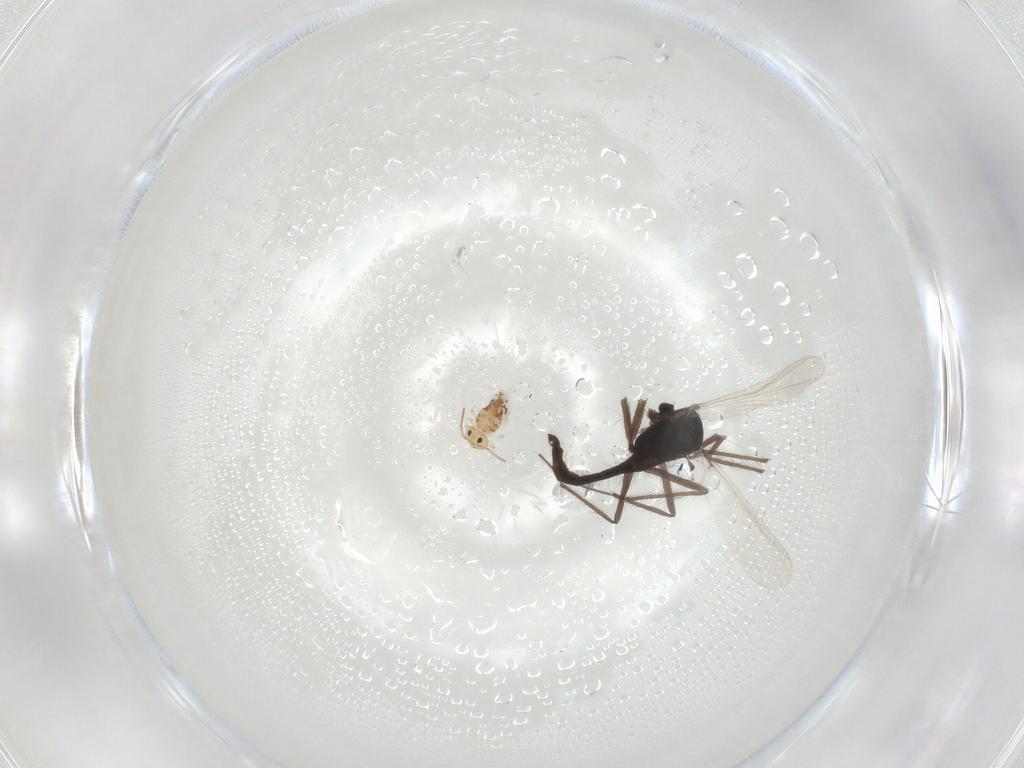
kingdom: Animalia
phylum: Arthropoda
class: Insecta
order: Diptera
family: Chironomidae
